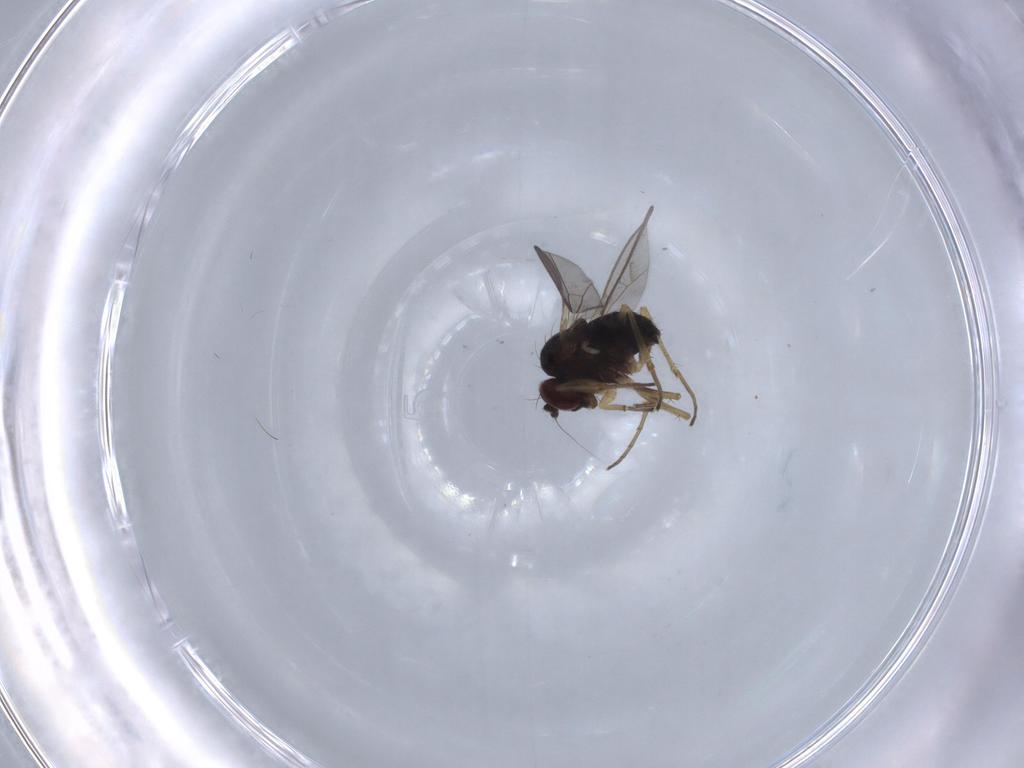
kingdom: Animalia
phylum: Arthropoda
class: Insecta
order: Diptera
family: Dolichopodidae
